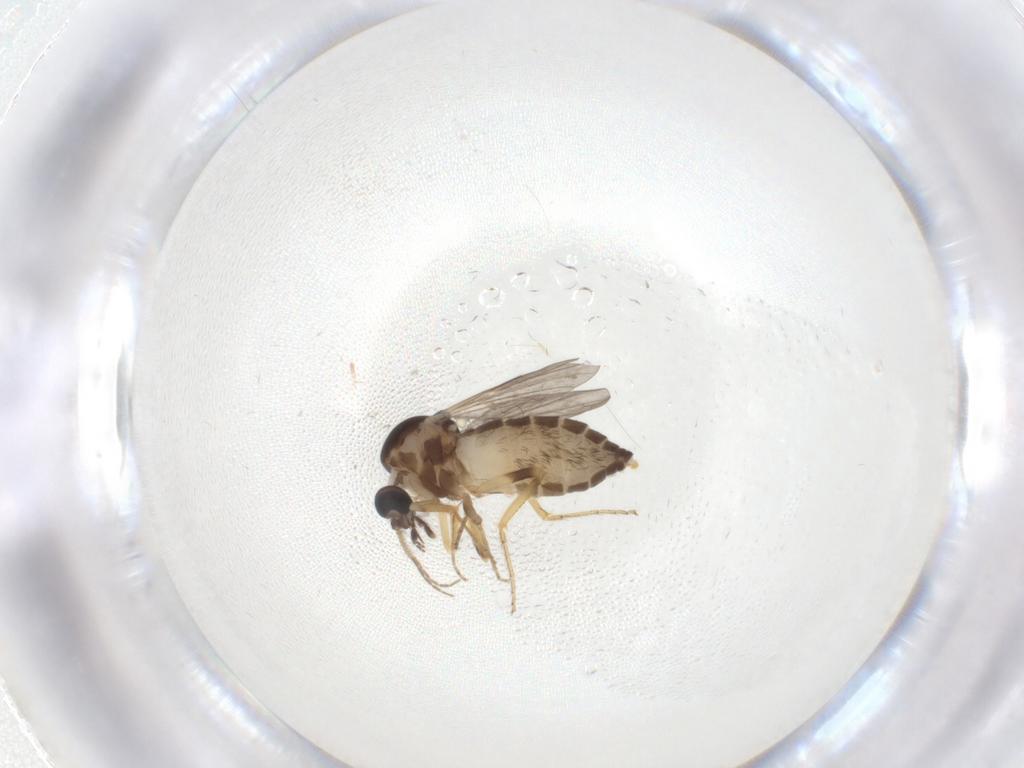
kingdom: Animalia
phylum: Arthropoda
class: Insecta
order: Diptera
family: Ceratopogonidae
